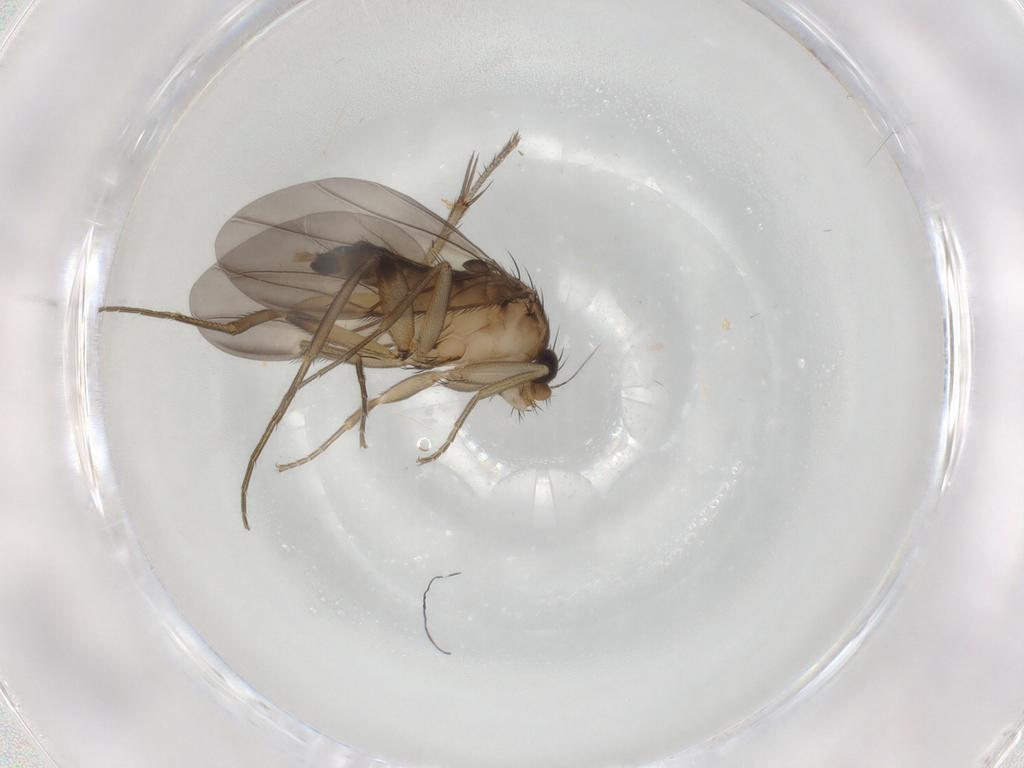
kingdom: Animalia
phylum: Arthropoda
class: Insecta
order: Diptera
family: Phoridae
